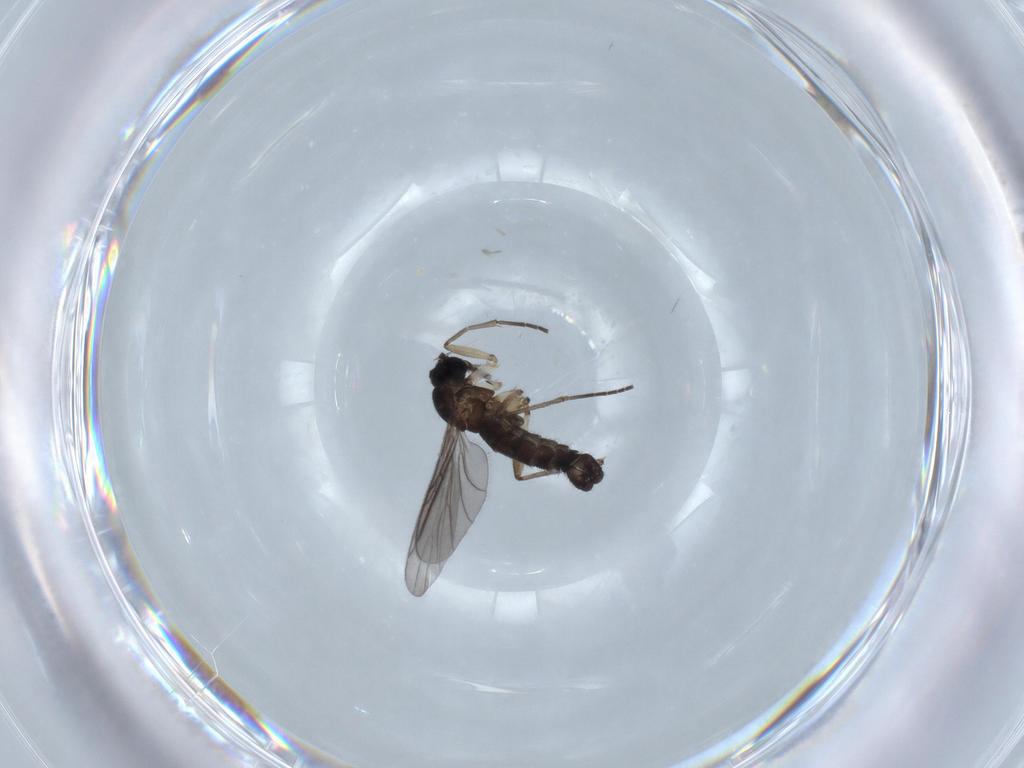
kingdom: Animalia
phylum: Arthropoda
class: Insecta
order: Diptera
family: Sciaridae
